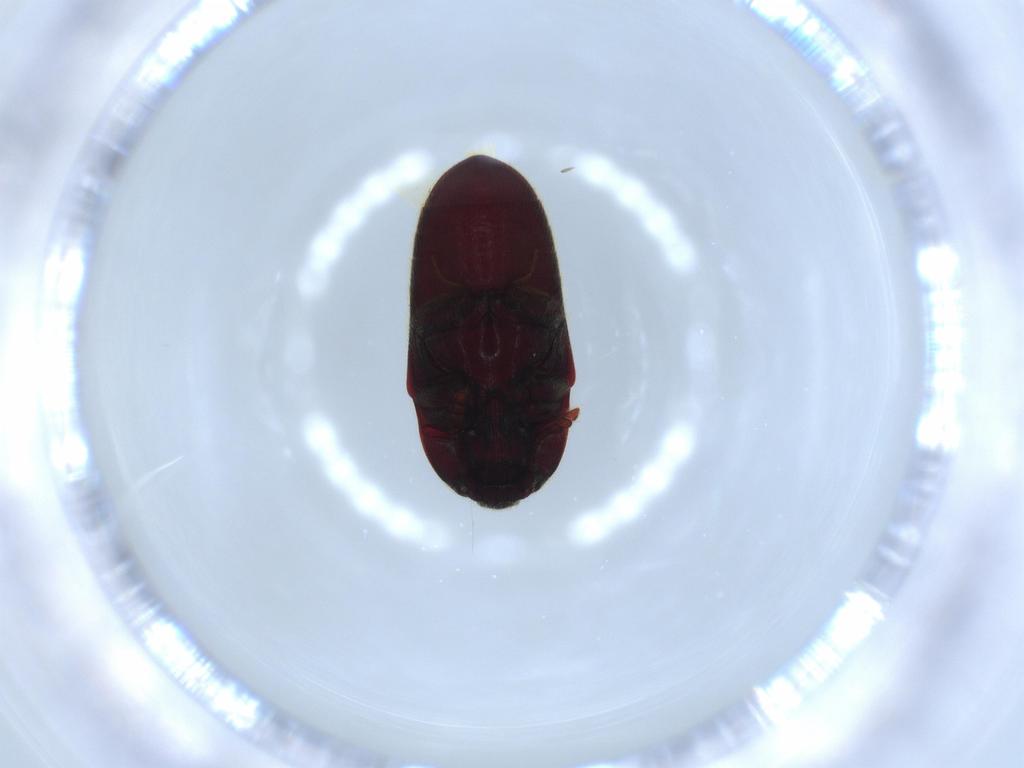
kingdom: Animalia
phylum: Arthropoda
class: Insecta
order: Coleoptera
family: Throscidae
